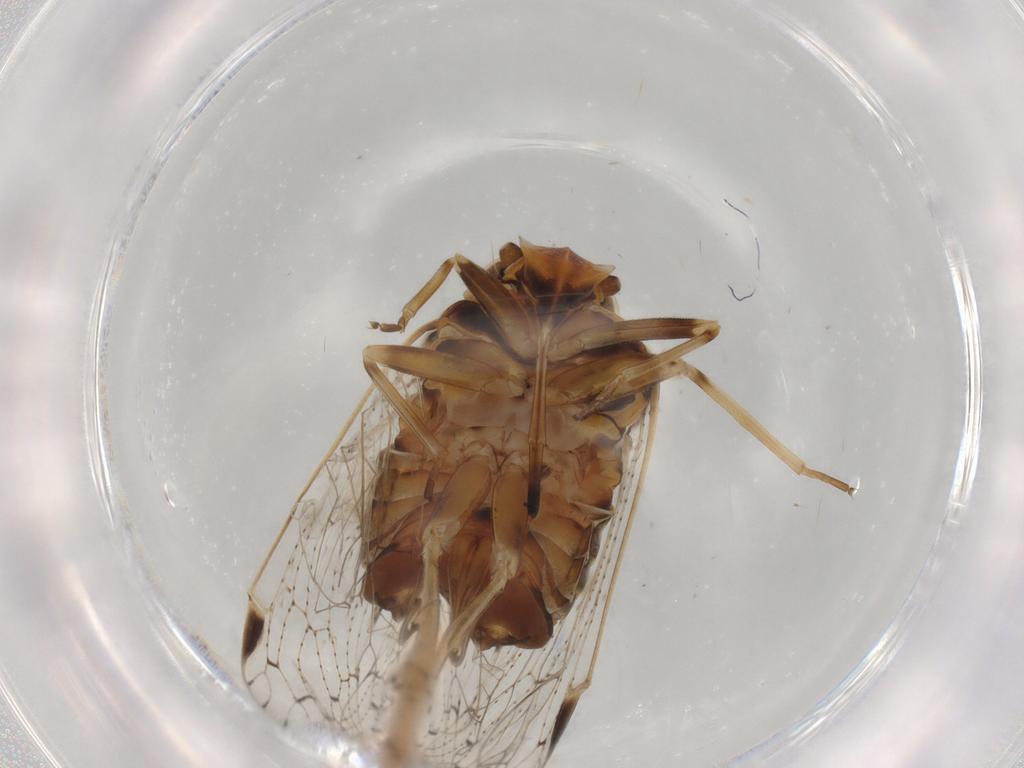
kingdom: Animalia
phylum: Arthropoda
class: Insecta
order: Hemiptera
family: Cixiidae
